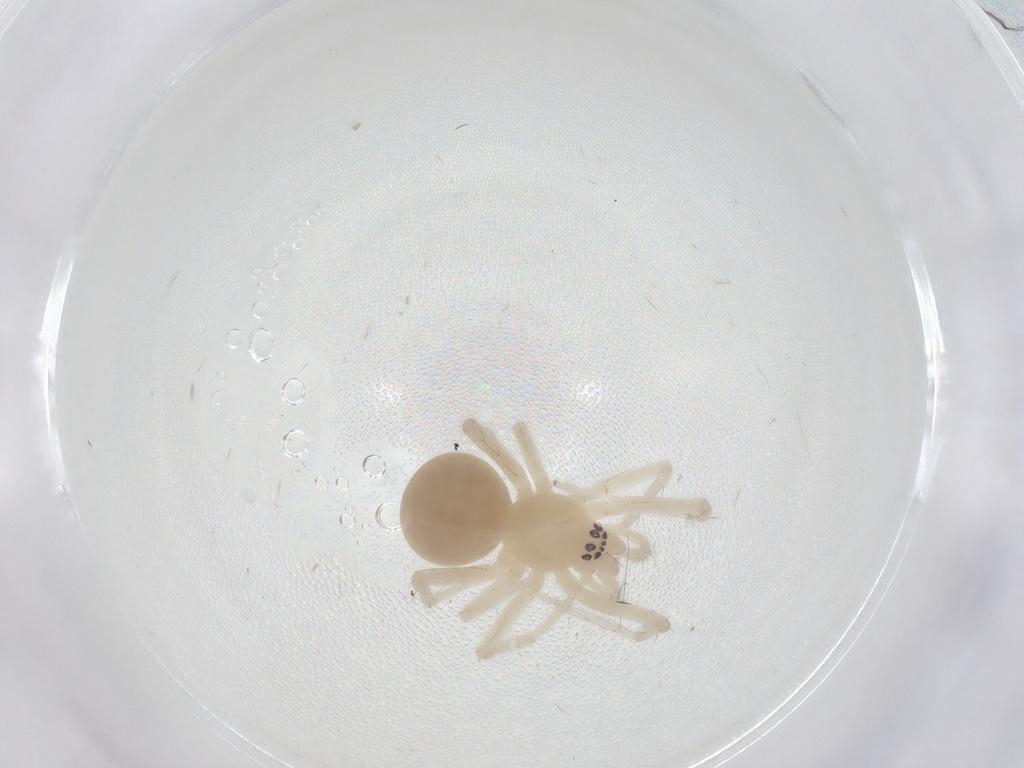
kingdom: Animalia
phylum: Arthropoda
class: Arachnida
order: Araneae
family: Anyphaenidae
